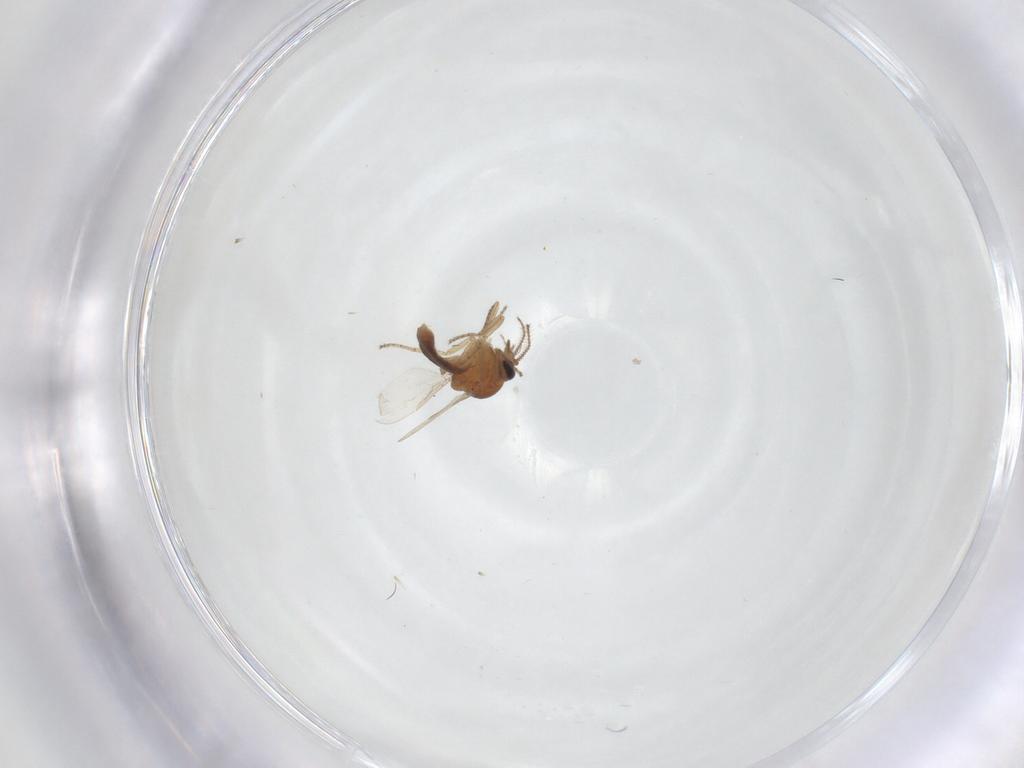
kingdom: Animalia
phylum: Arthropoda
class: Insecta
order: Diptera
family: Ceratopogonidae
